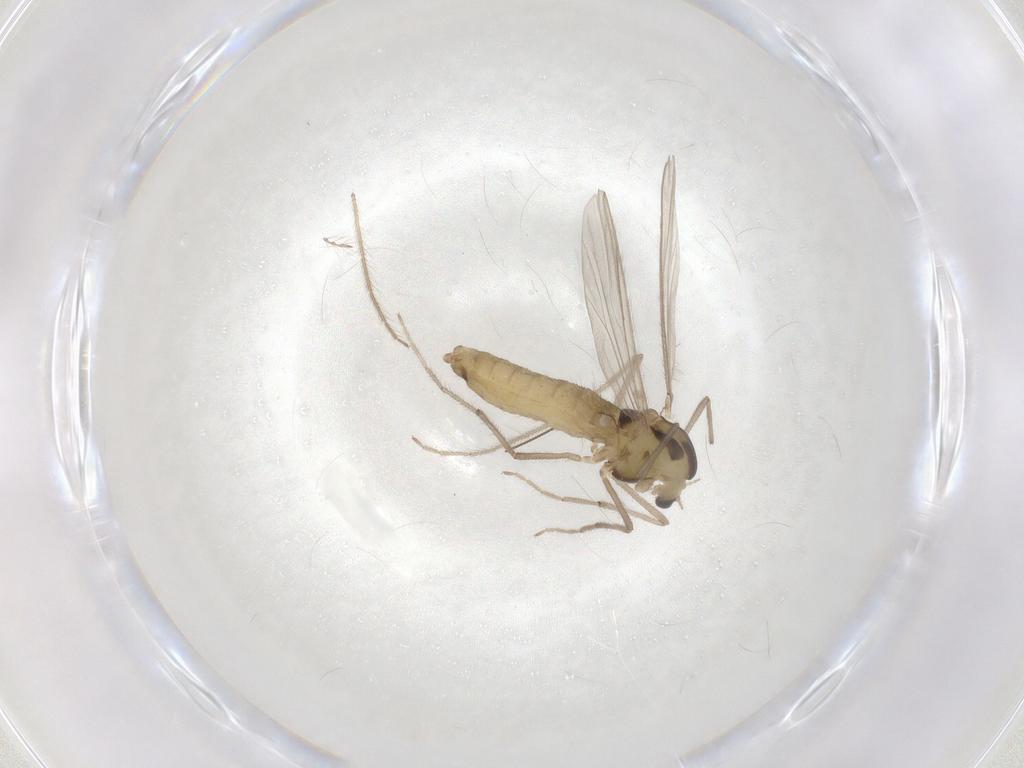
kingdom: Animalia
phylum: Arthropoda
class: Insecta
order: Diptera
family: Chironomidae
